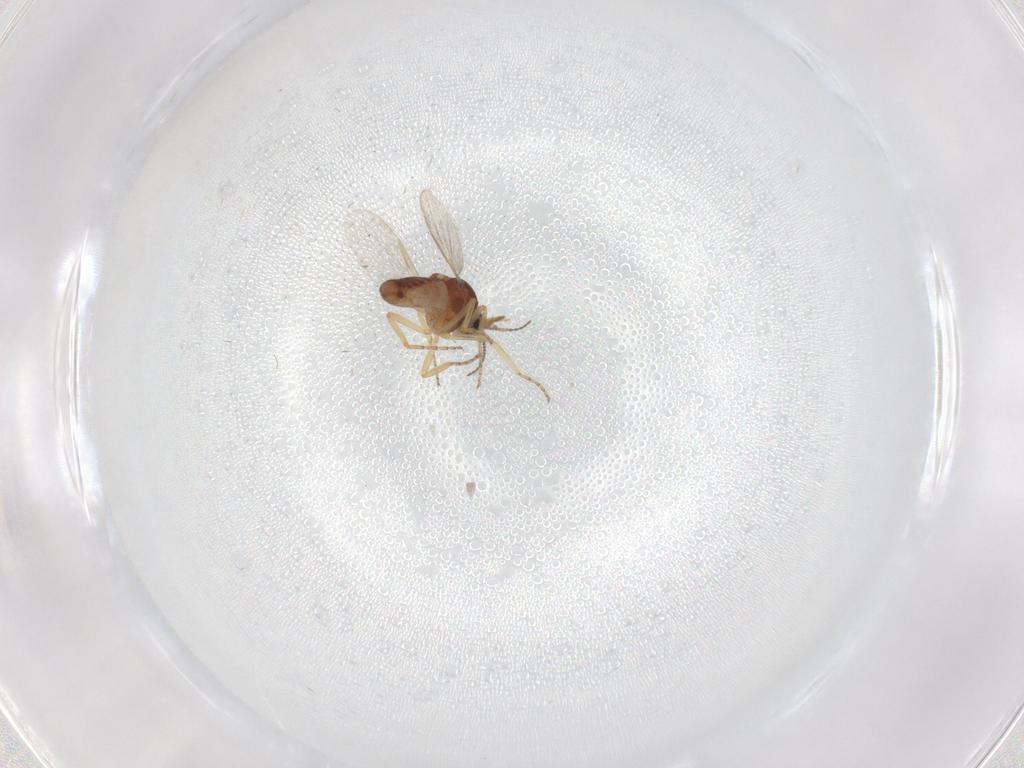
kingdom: Animalia
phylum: Arthropoda
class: Insecta
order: Diptera
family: Phoridae
